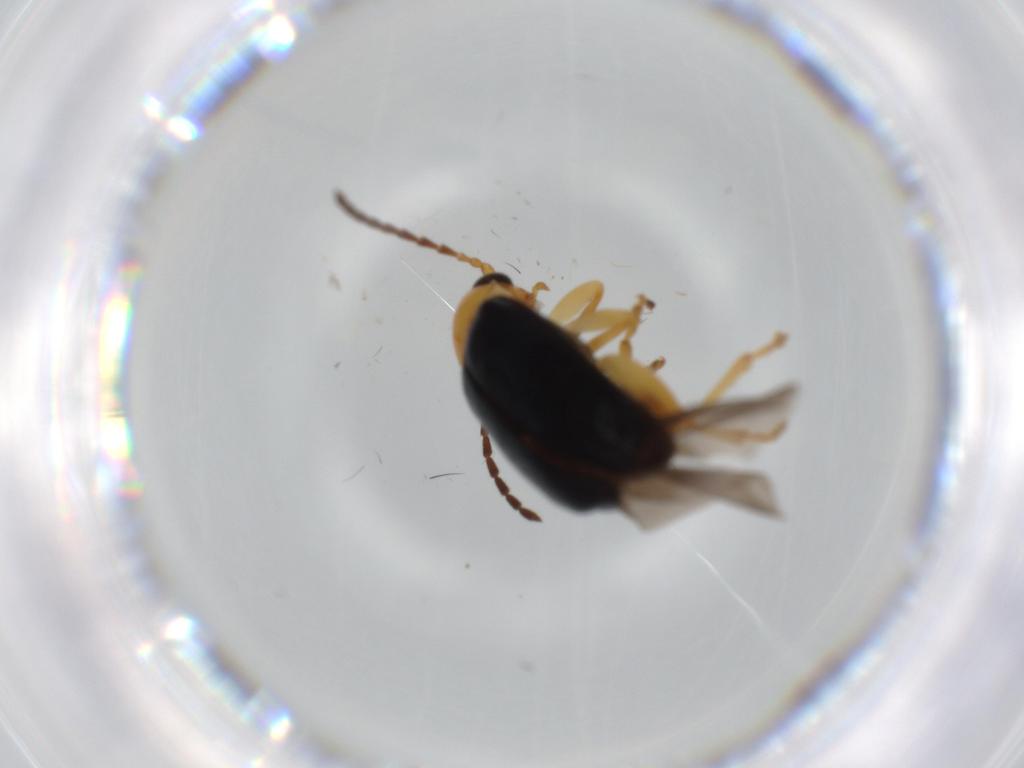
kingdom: Animalia
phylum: Arthropoda
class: Insecta
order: Coleoptera
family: Chrysomelidae
